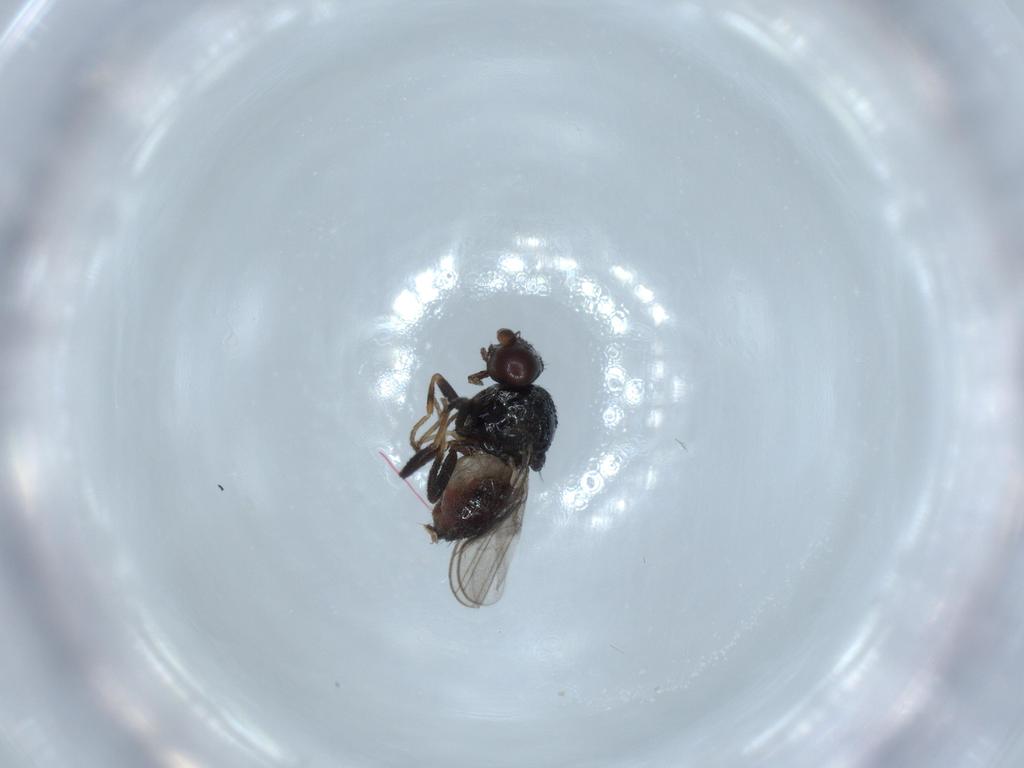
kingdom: Animalia
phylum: Arthropoda
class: Insecta
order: Diptera
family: Chloropidae
